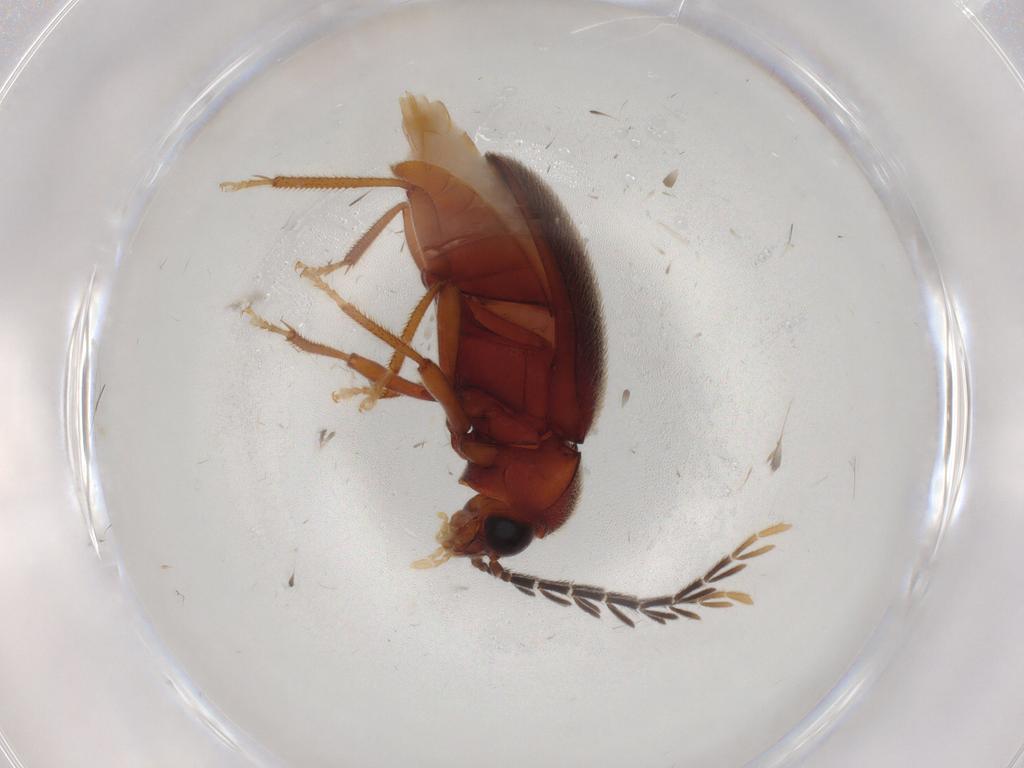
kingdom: Animalia
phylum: Arthropoda
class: Insecta
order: Coleoptera
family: Ptilodactylidae
